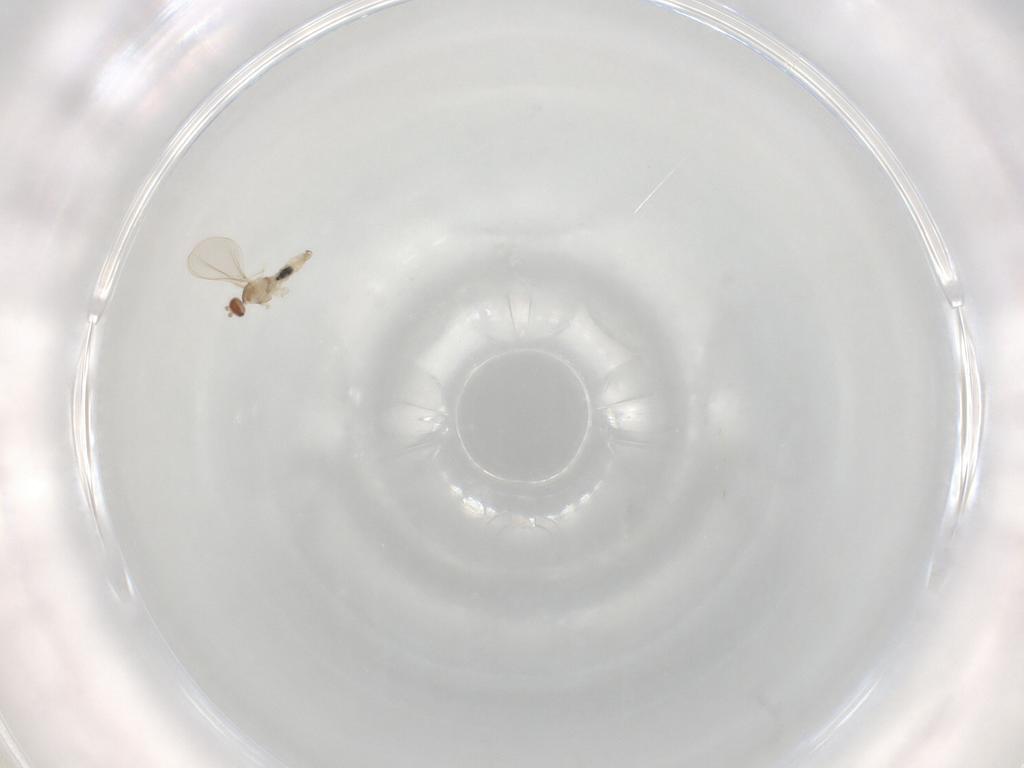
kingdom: Animalia
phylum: Arthropoda
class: Insecta
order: Diptera
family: Cecidomyiidae
